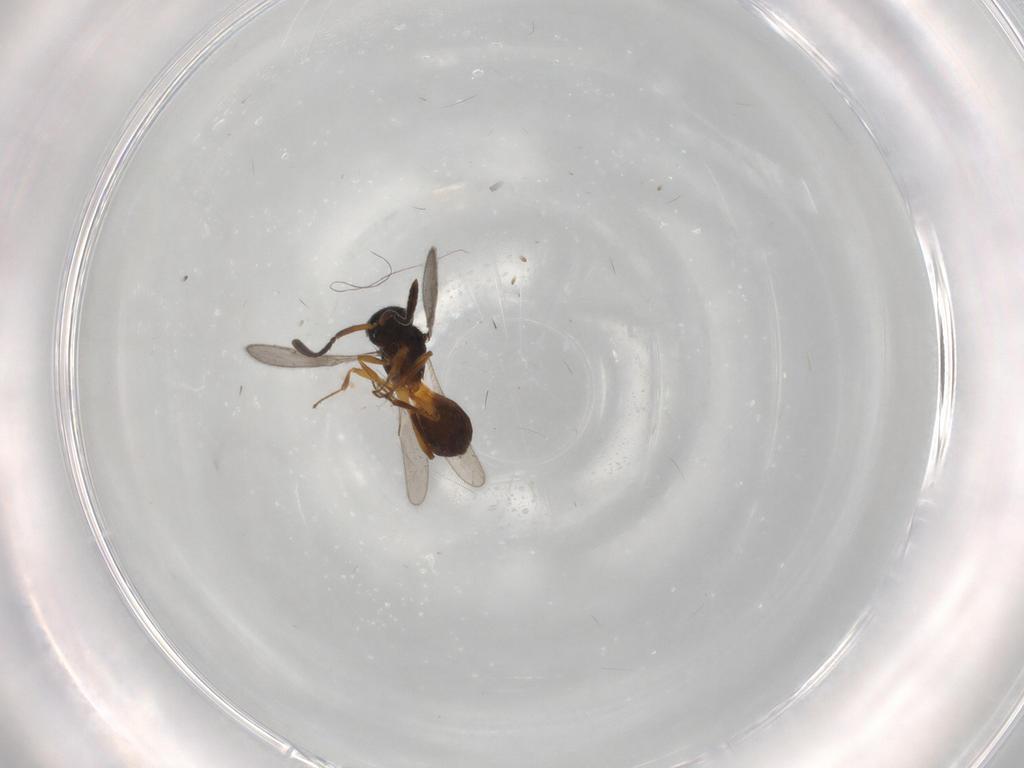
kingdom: Animalia
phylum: Arthropoda
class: Insecta
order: Hymenoptera
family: Scelionidae
